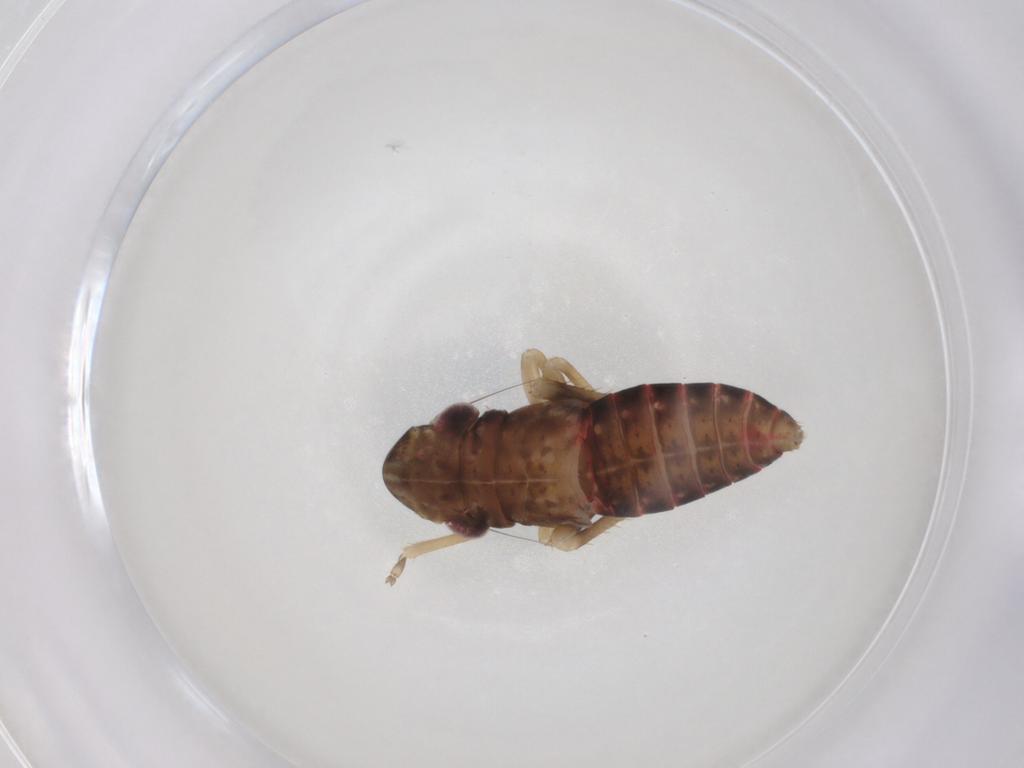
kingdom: Animalia
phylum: Arthropoda
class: Insecta
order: Hemiptera
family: Cicadellidae
